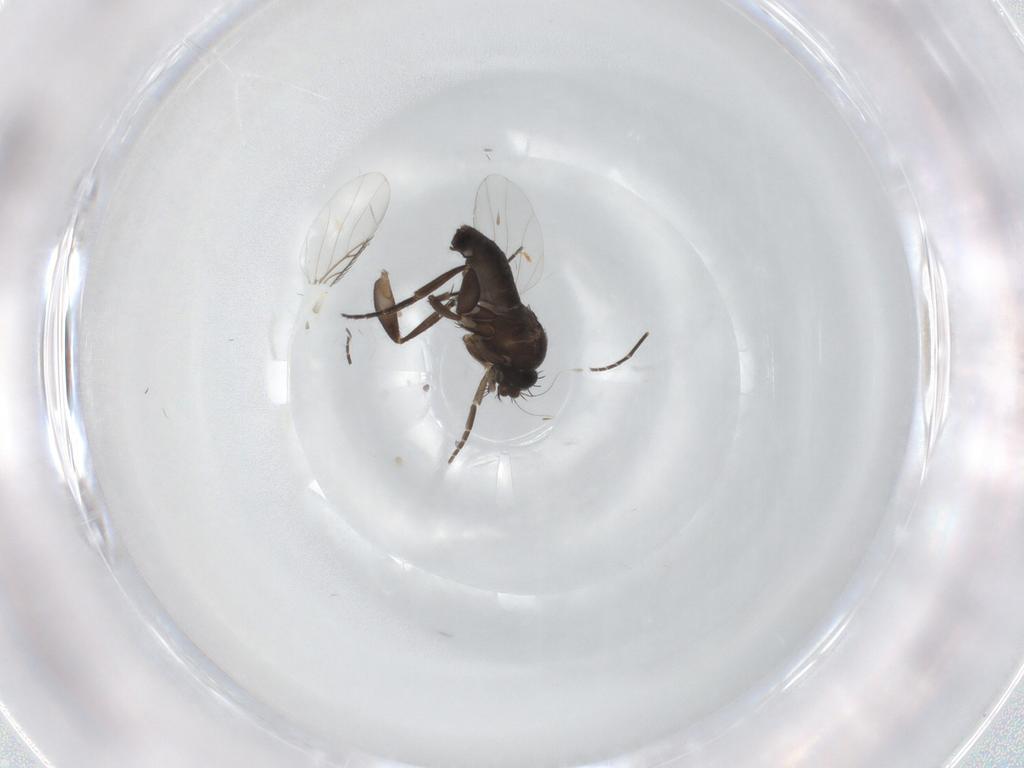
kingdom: Animalia
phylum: Arthropoda
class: Insecta
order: Diptera
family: Phoridae
